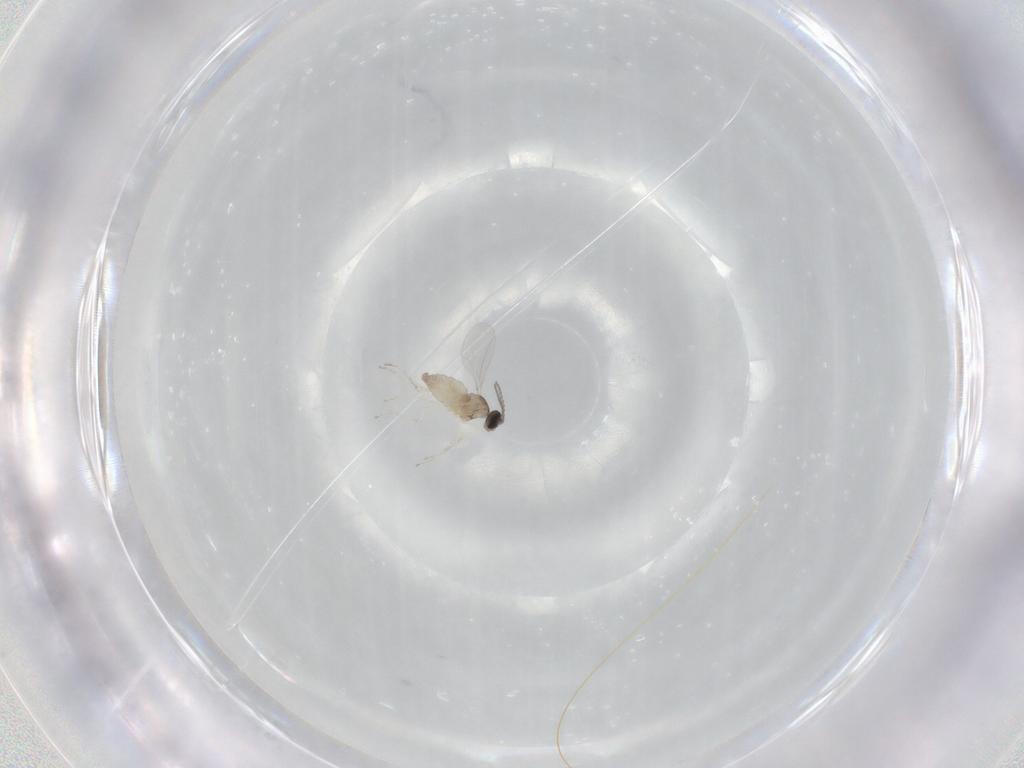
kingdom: Animalia
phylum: Arthropoda
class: Insecta
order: Diptera
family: Cecidomyiidae
